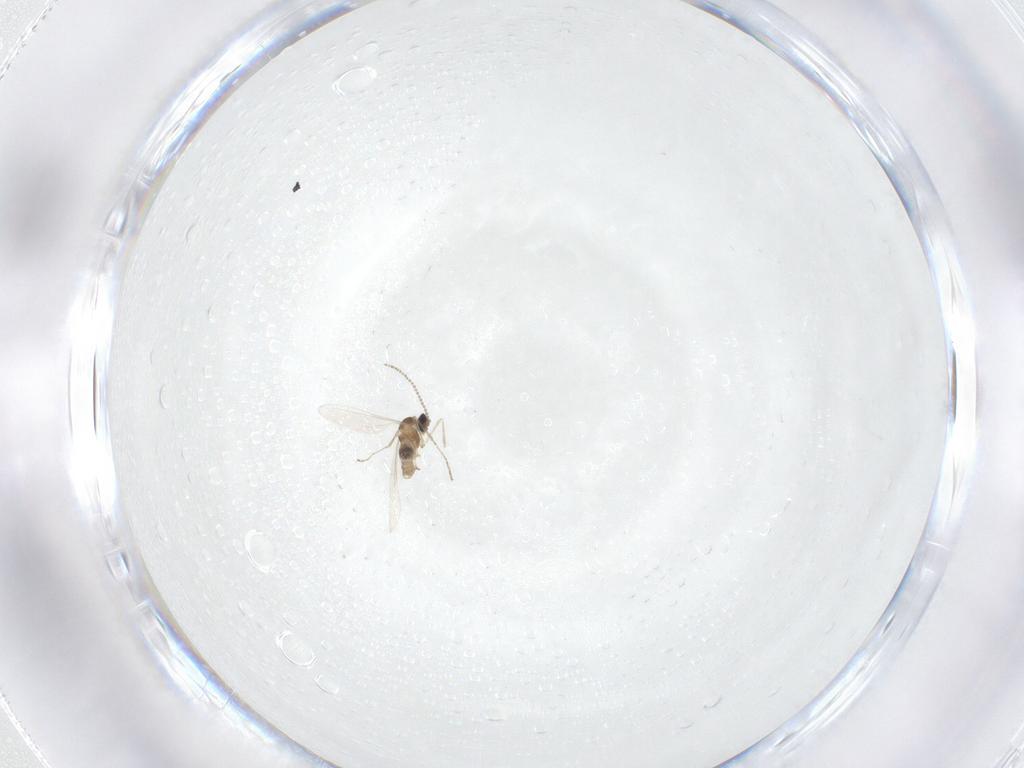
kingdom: Animalia
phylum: Arthropoda
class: Insecta
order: Diptera
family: Cecidomyiidae
